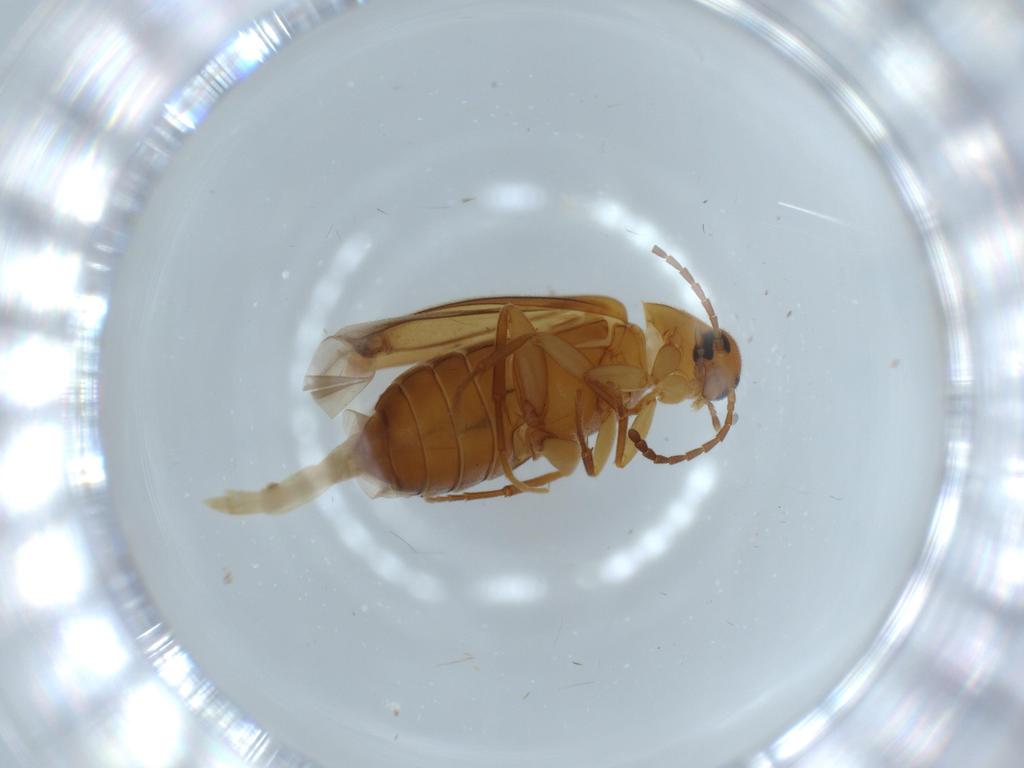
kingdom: Animalia
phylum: Arthropoda
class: Insecta
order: Coleoptera
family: Scraptiidae
